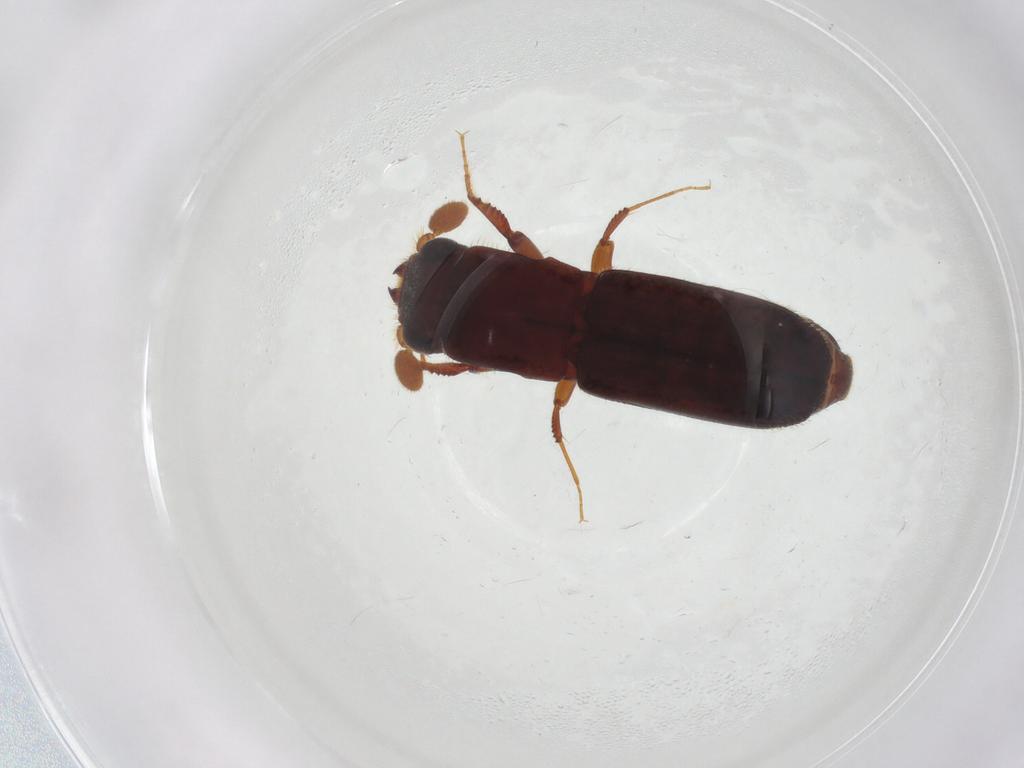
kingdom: Animalia
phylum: Arthropoda
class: Insecta
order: Coleoptera
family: Curculionidae
